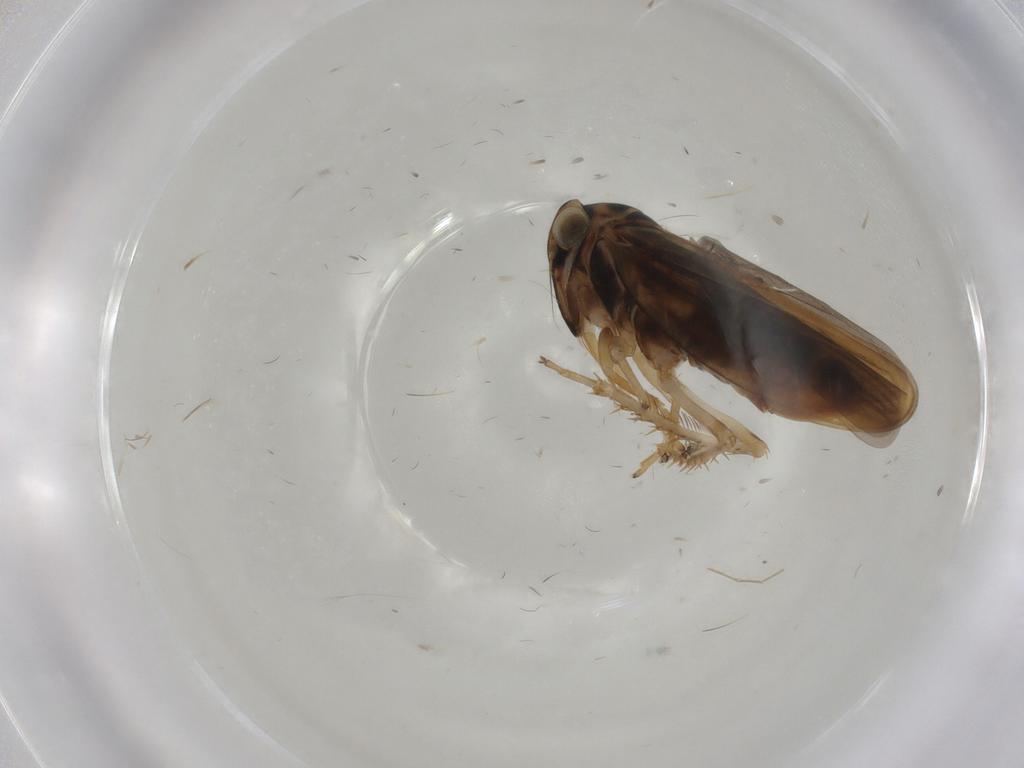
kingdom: Animalia
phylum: Arthropoda
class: Insecta
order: Hemiptera
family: Cicadellidae
